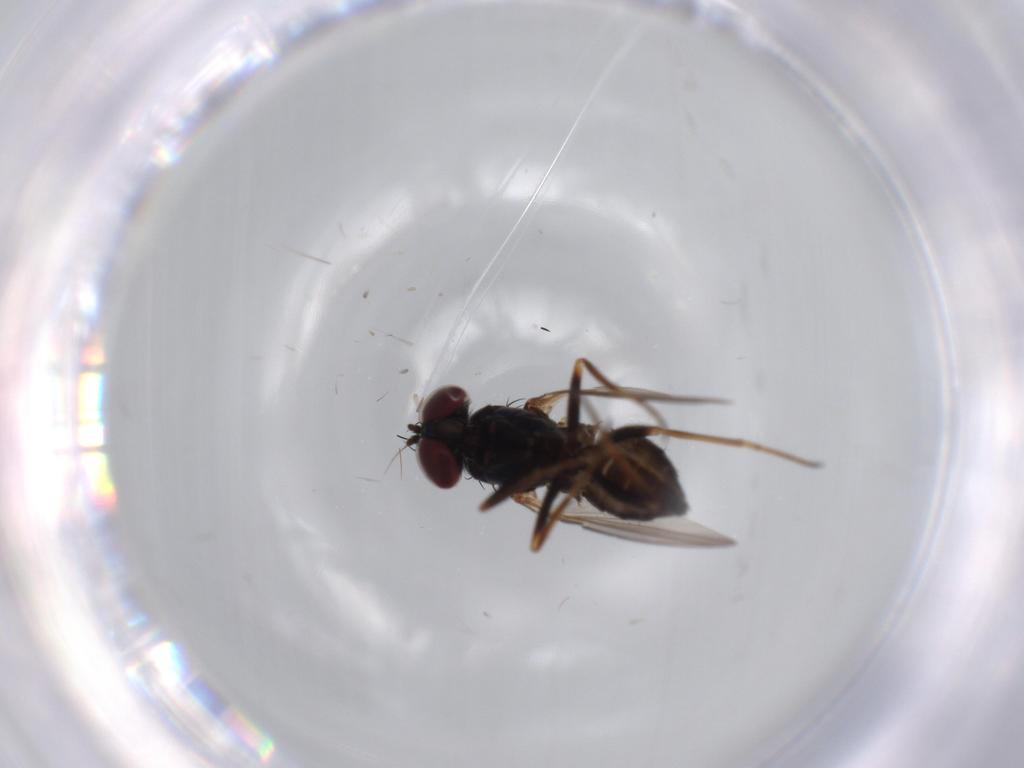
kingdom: Animalia
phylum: Arthropoda
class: Insecta
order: Diptera
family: Dolichopodidae
